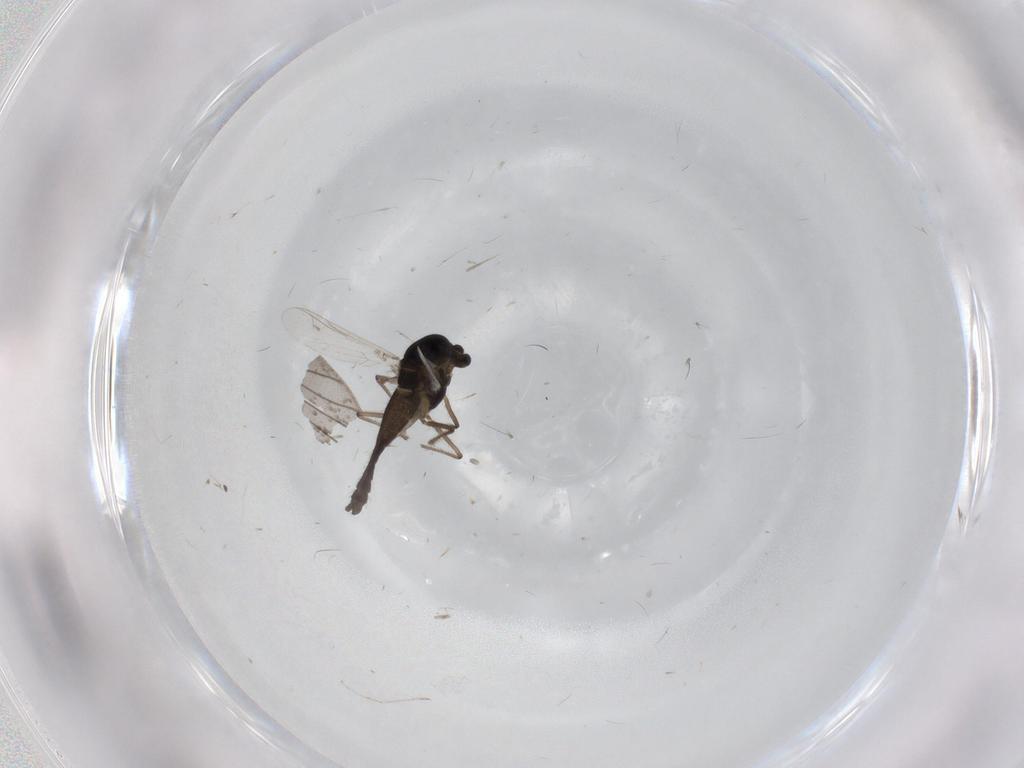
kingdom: Animalia
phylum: Arthropoda
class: Insecta
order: Diptera
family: Chironomidae
